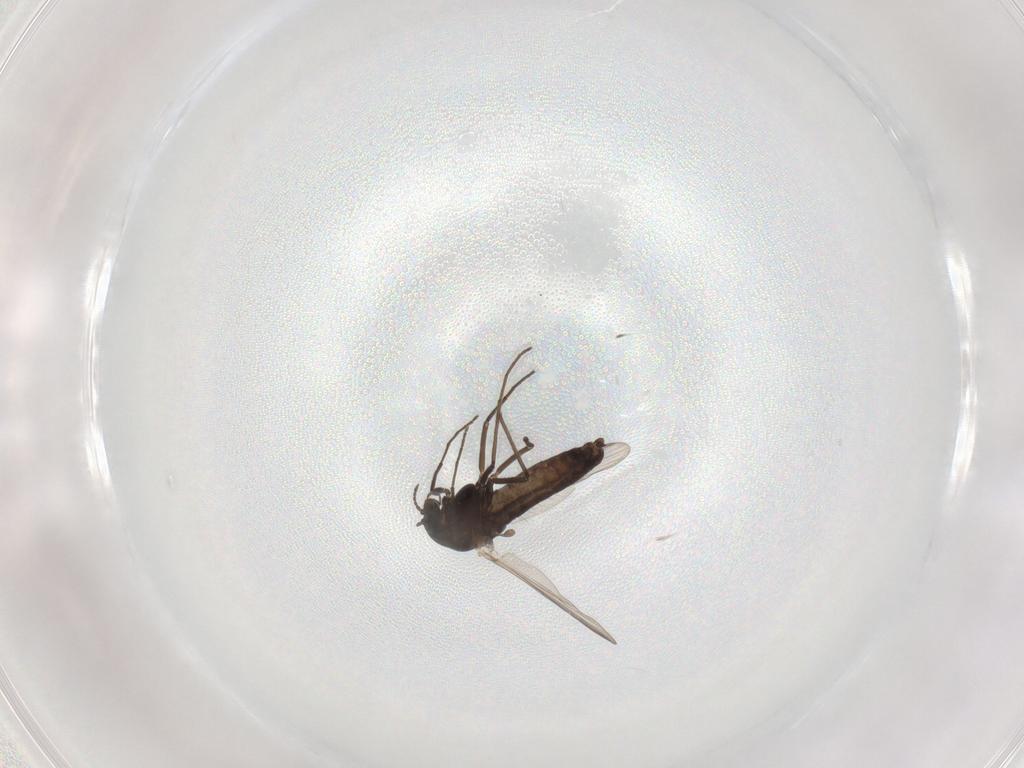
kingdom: Animalia
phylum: Arthropoda
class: Insecta
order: Diptera
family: Chironomidae
